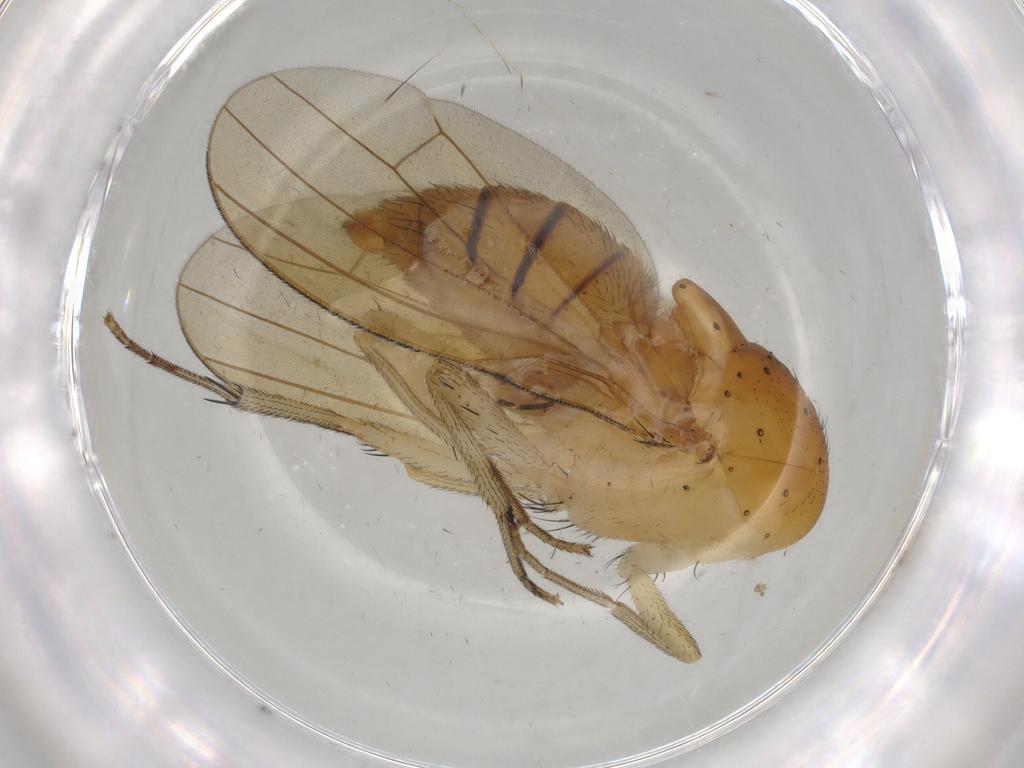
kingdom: Animalia
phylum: Arthropoda
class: Insecta
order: Diptera
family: Ceratopogonidae
